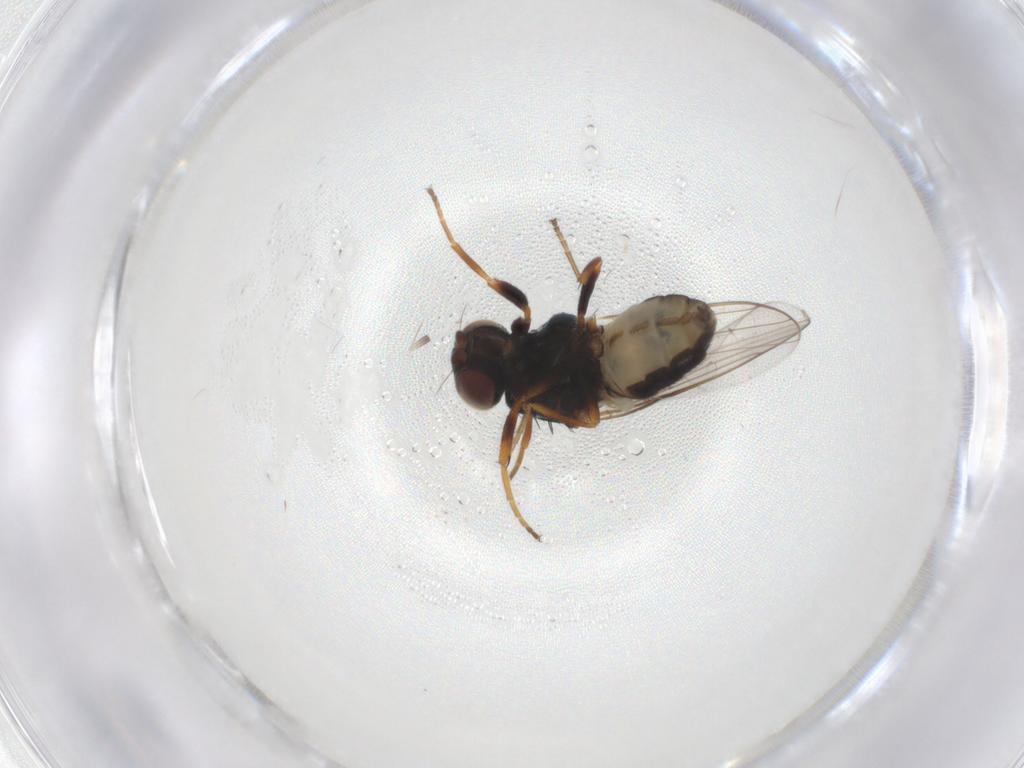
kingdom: Animalia
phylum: Arthropoda
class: Insecta
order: Diptera
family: Chloropidae
